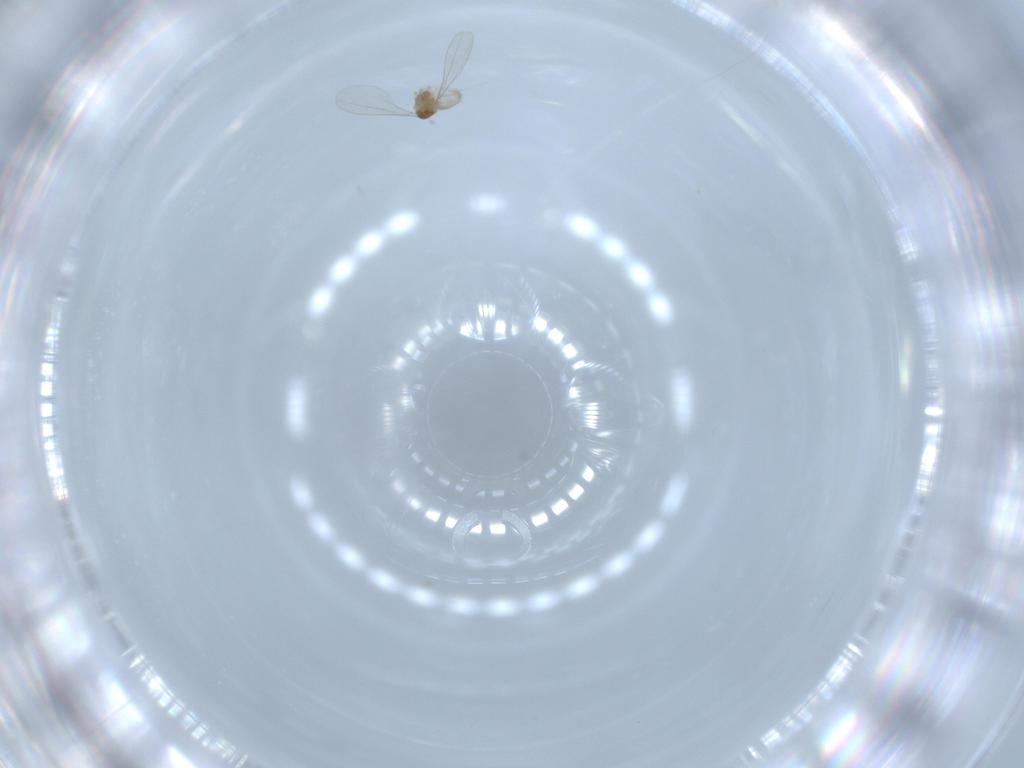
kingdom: Animalia
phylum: Arthropoda
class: Insecta
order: Diptera
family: Cecidomyiidae
